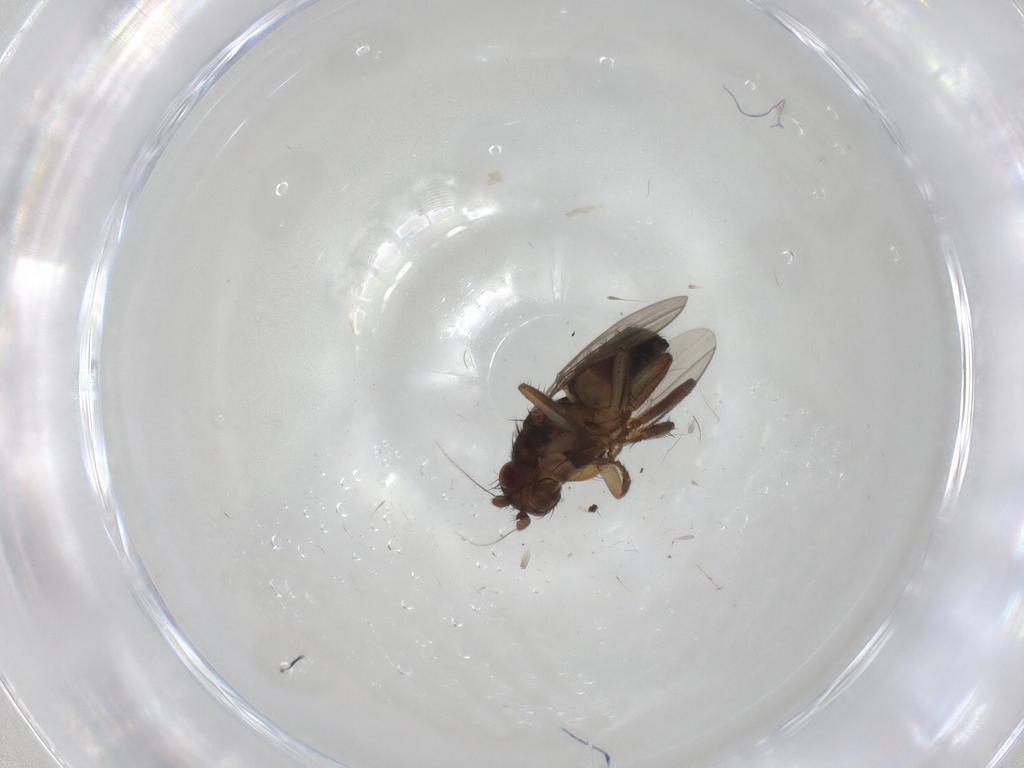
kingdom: Animalia
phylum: Arthropoda
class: Insecta
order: Diptera
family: Sphaeroceridae
